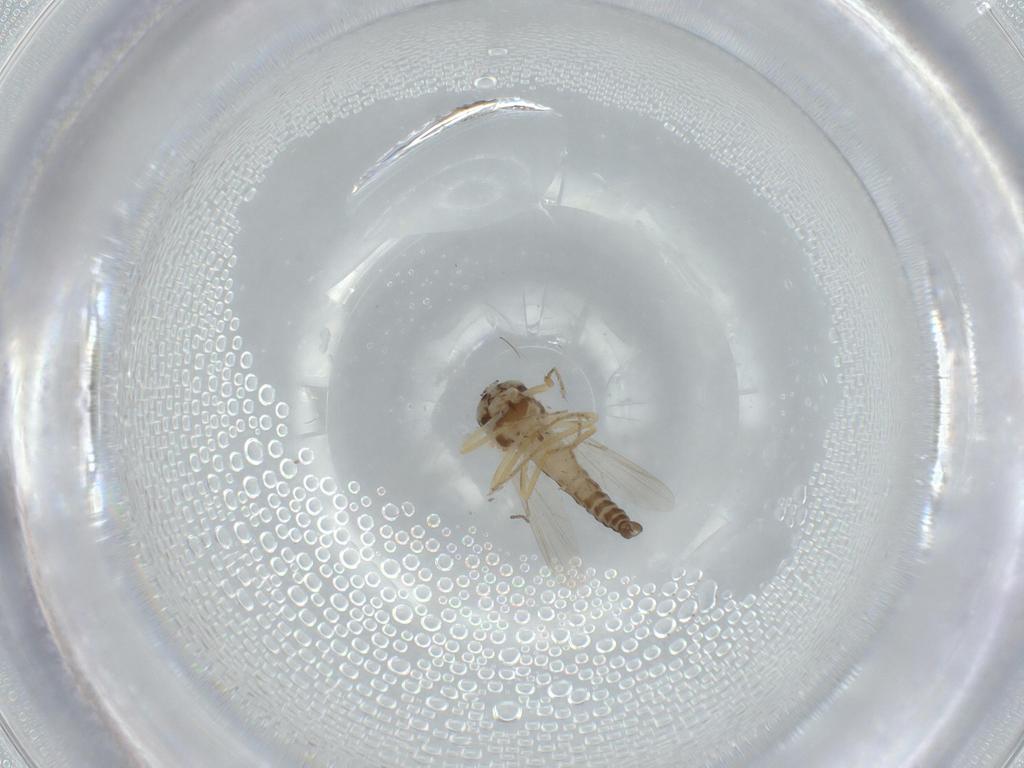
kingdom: Animalia
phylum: Arthropoda
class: Insecta
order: Diptera
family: Ceratopogonidae
